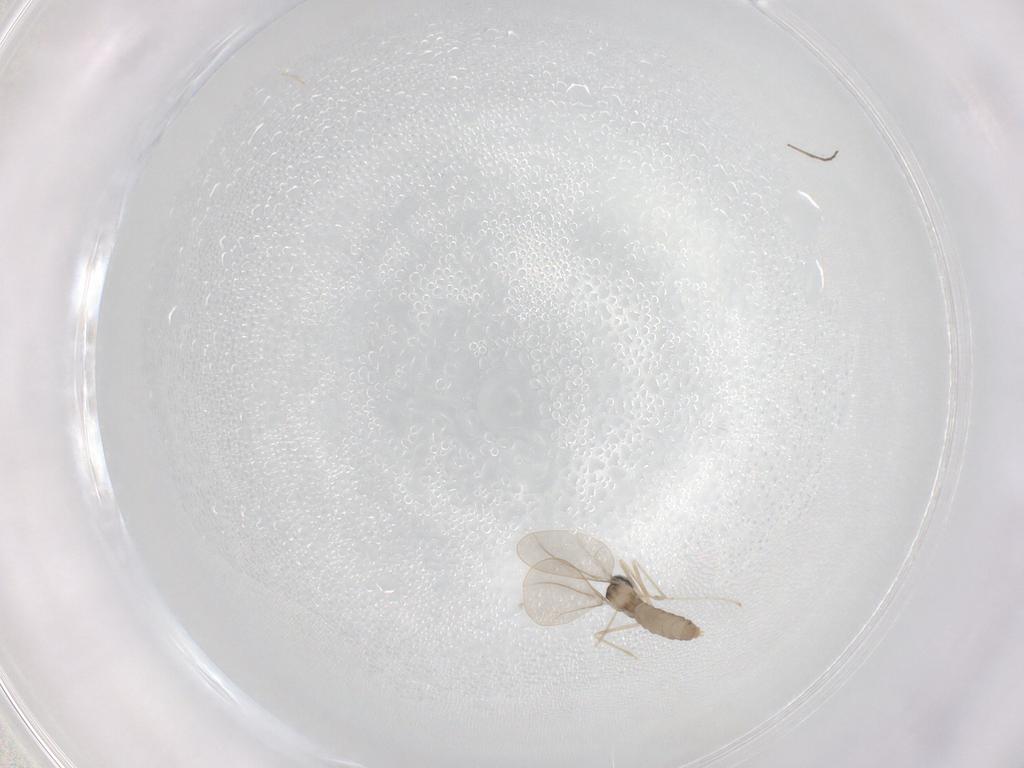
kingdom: Animalia
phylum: Arthropoda
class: Insecta
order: Diptera
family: Cecidomyiidae
